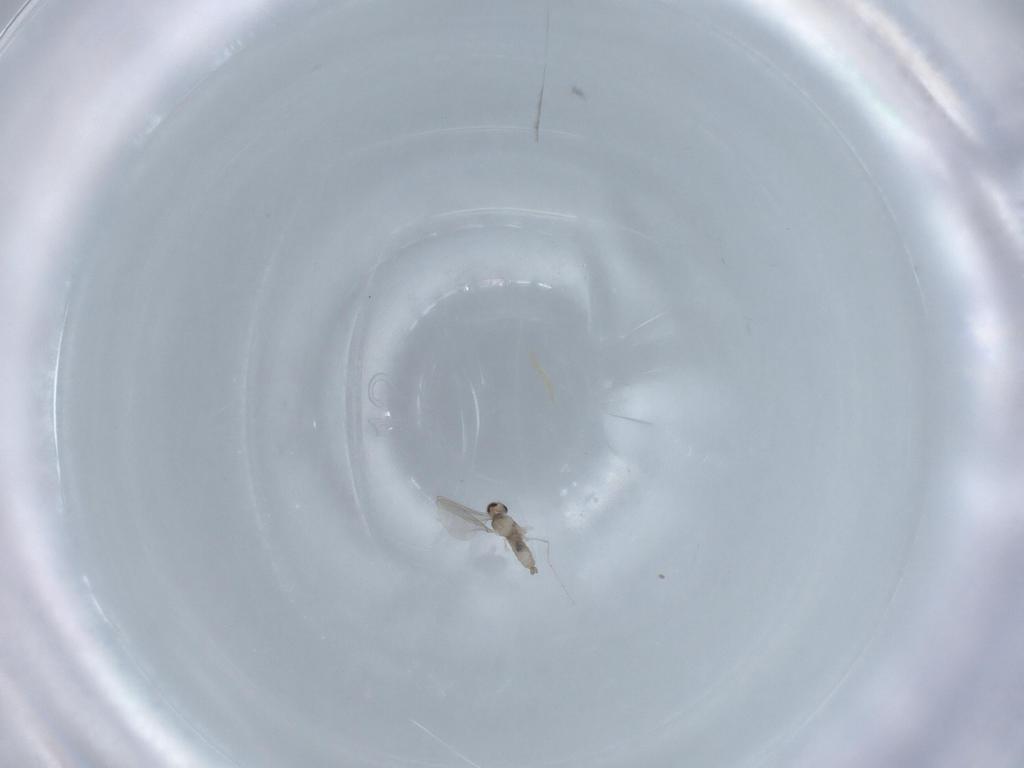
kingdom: Animalia
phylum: Arthropoda
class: Insecta
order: Diptera
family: Cecidomyiidae
